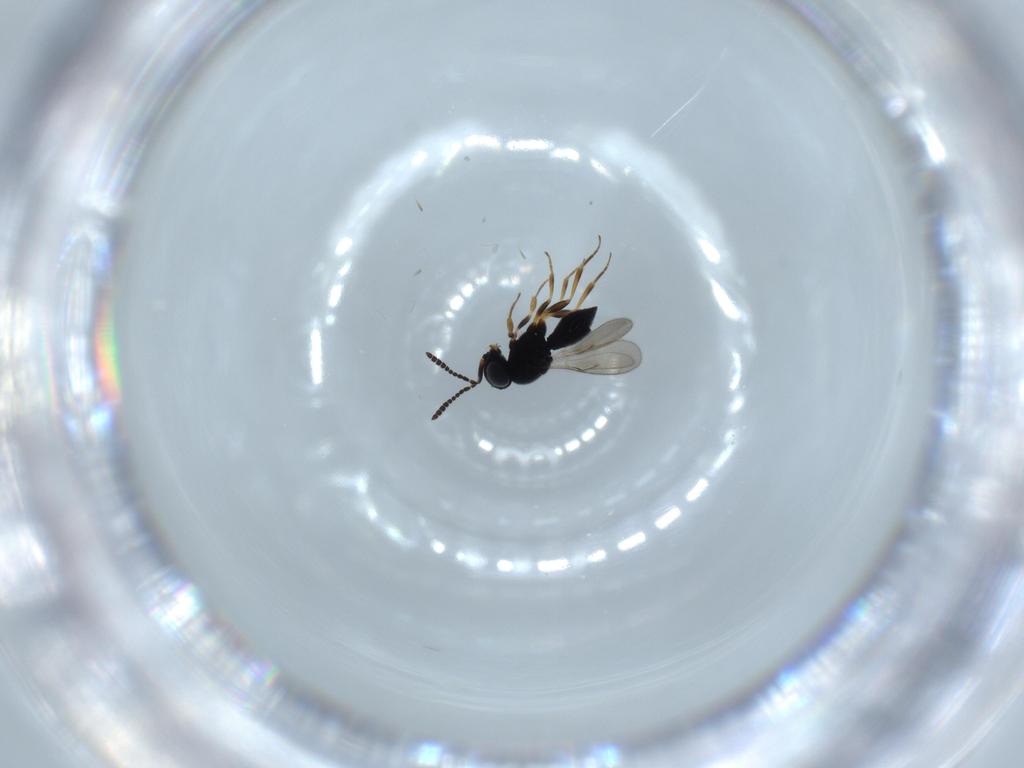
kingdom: Animalia
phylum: Arthropoda
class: Insecta
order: Hymenoptera
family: Scelionidae
